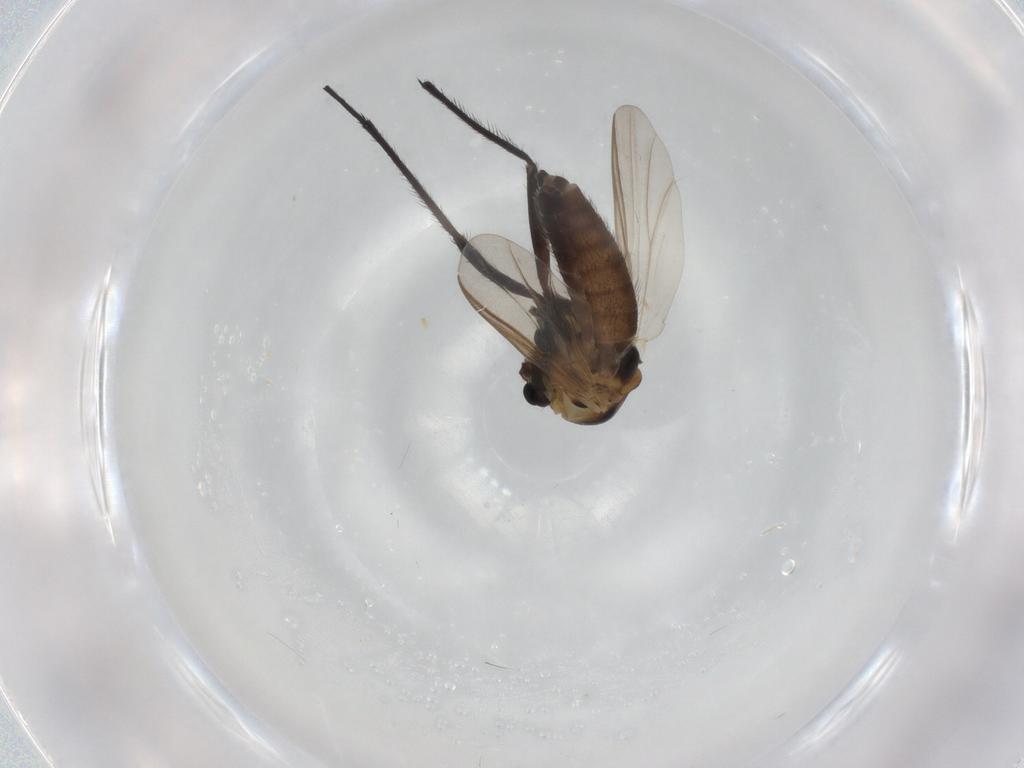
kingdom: Animalia
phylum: Arthropoda
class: Insecta
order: Diptera
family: Chironomidae
